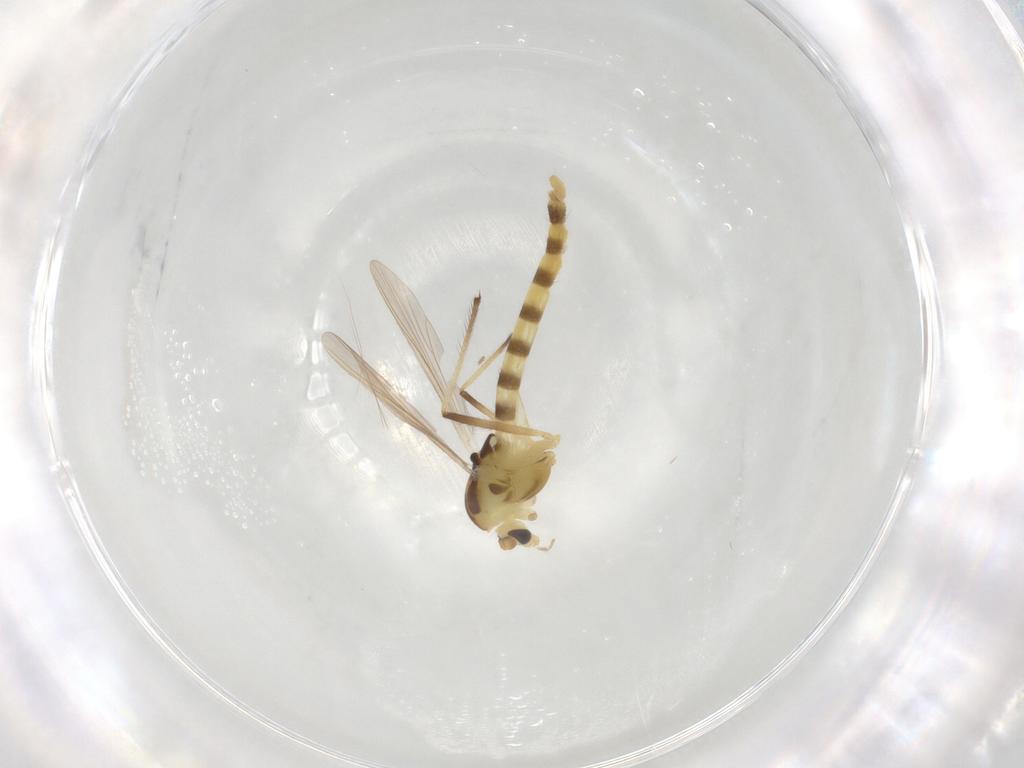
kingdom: Animalia
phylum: Arthropoda
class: Insecta
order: Diptera
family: Chironomidae
